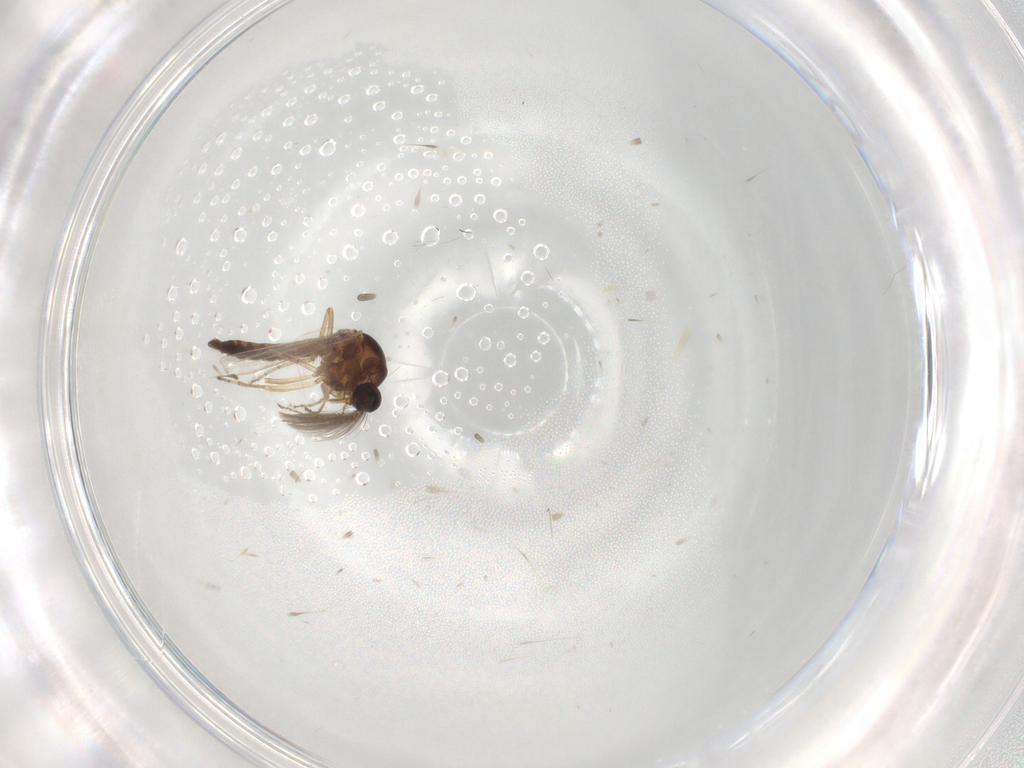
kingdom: Animalia
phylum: Arthropoda
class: Insecta
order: Diptera
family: Ceratopogonidae
